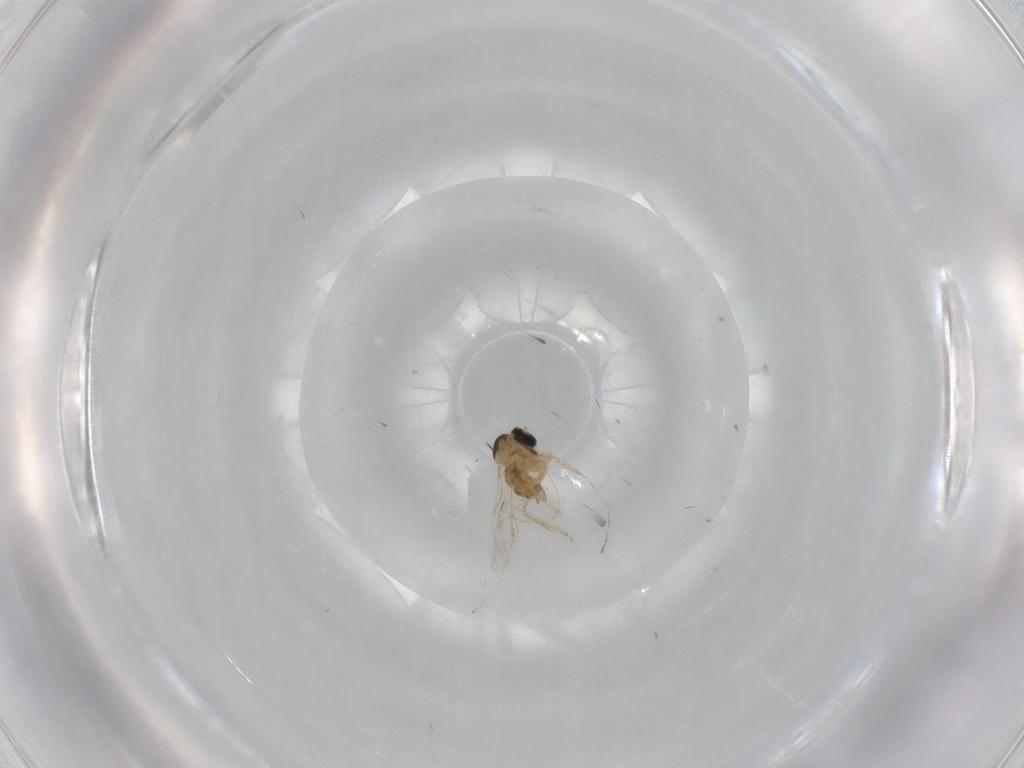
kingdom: Animalia
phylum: Arthropoda
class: Insecta
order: Diptera
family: Cecidomyiidae
